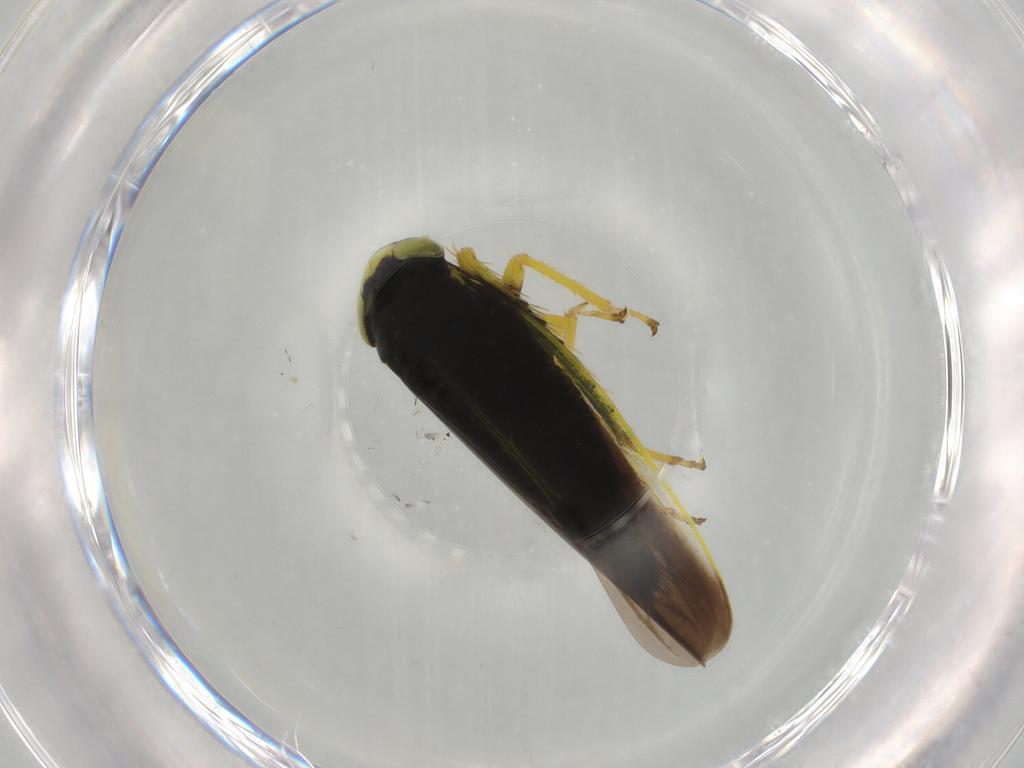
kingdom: Animalia
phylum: Arthropoda
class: Insecta
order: Hemiptera
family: Cicadellidae
